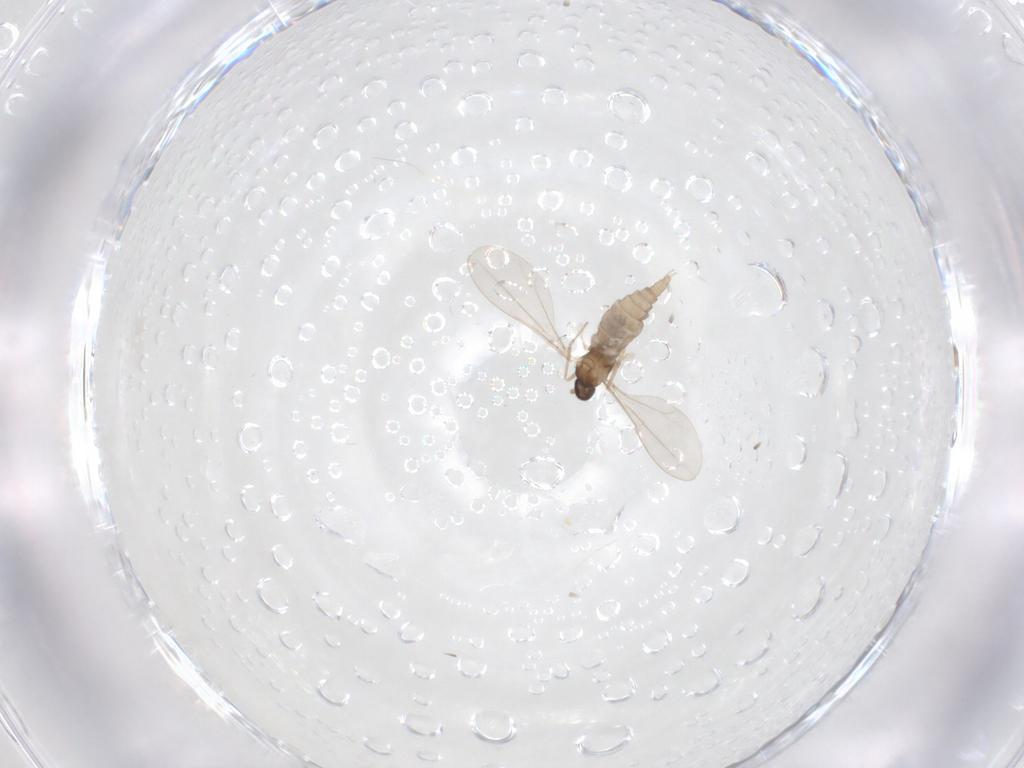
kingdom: Animalia
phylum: Arthropoda
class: Insecta
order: Diptera
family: Cecidomyiidae
